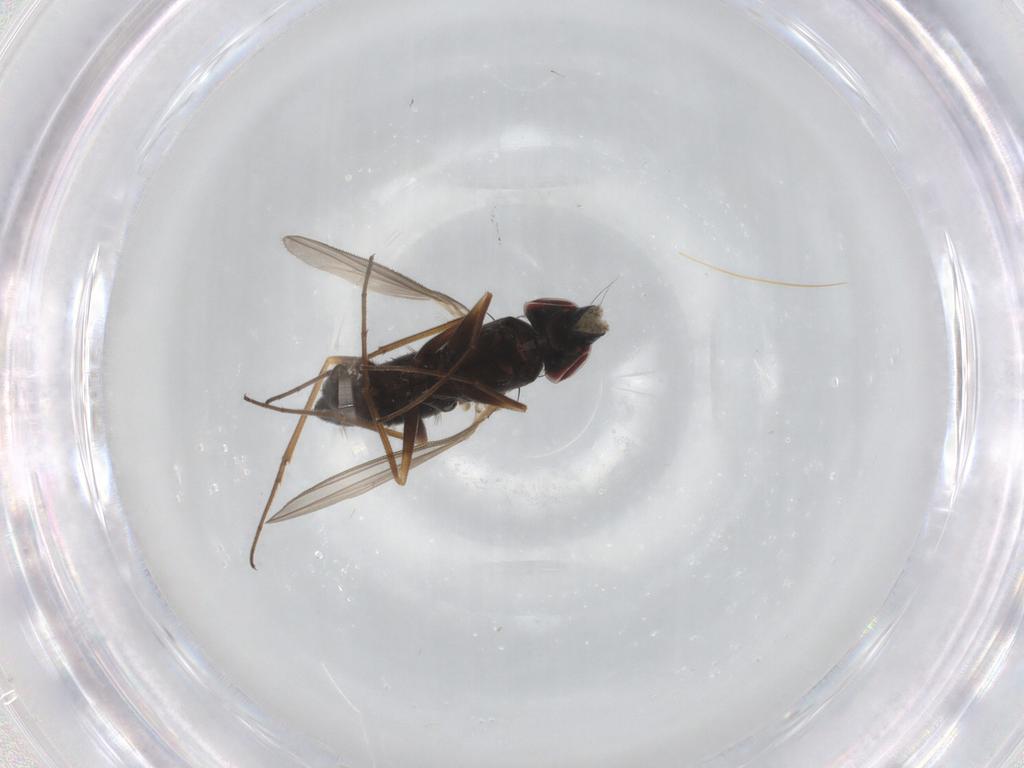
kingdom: Animalia
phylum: Arthropoda
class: Insecta
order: Diptera
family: Dolichopodidae
